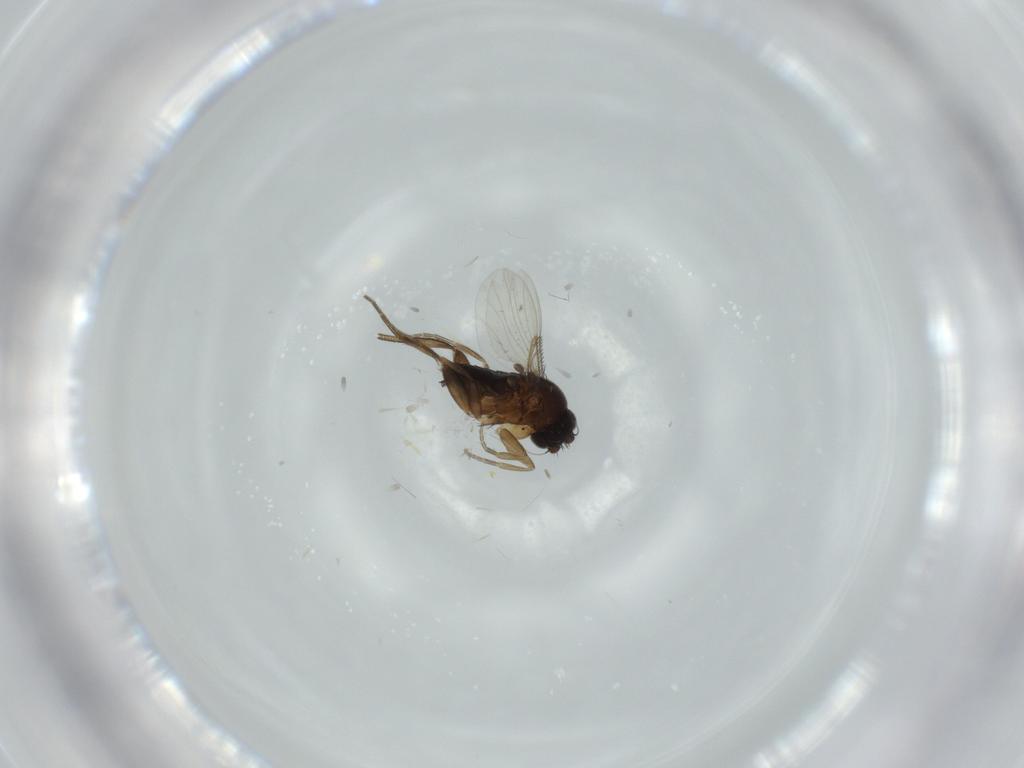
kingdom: Animalia
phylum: Arthropoda
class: Insecta
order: Diptera
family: Phoridae
